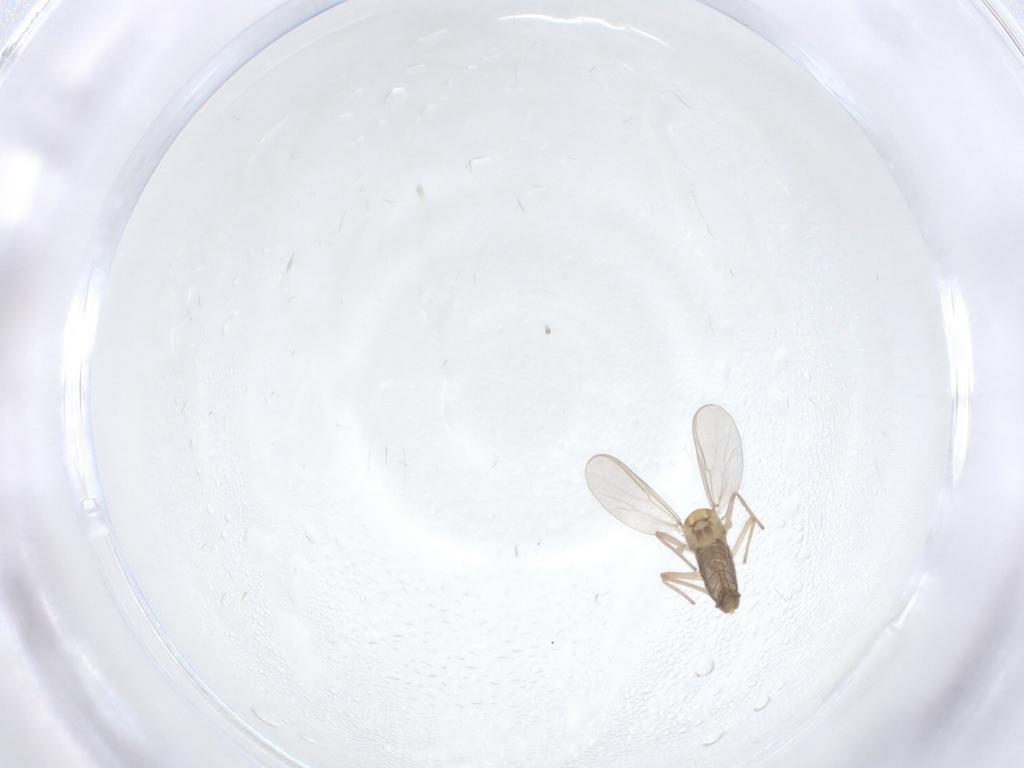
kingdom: Animalia
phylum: Arthropoda
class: Insecta
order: Diptera
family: Chironomidae
